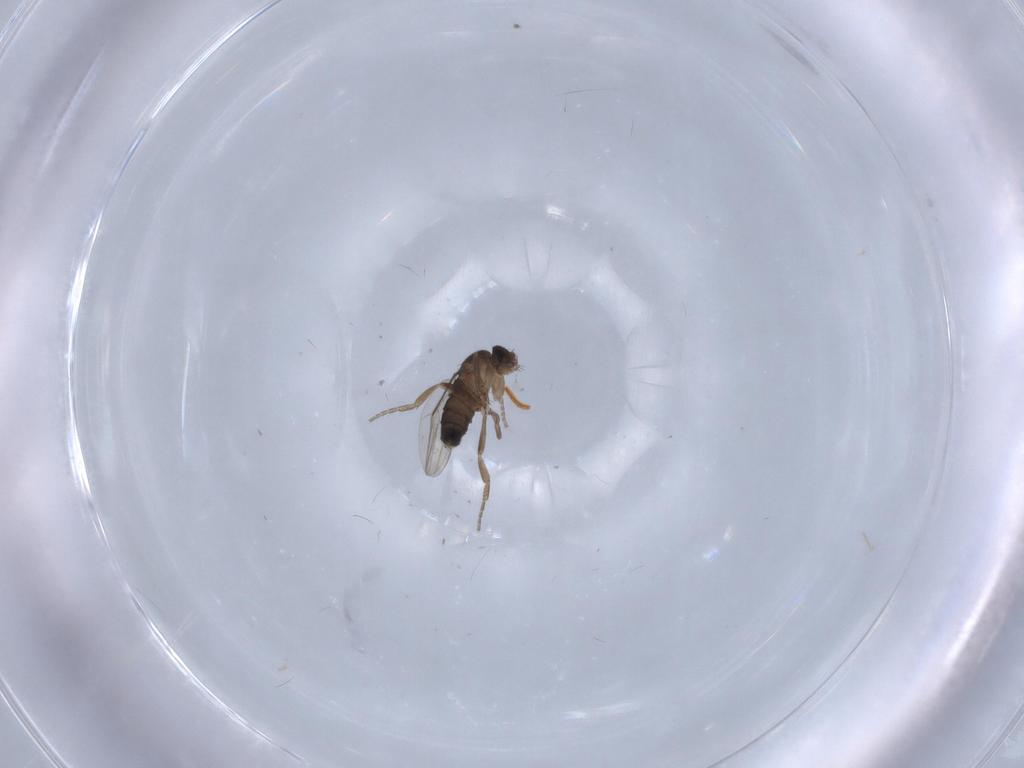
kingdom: Animalia
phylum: Arthropoda
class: Insecta
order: Diptera
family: Phoridae
